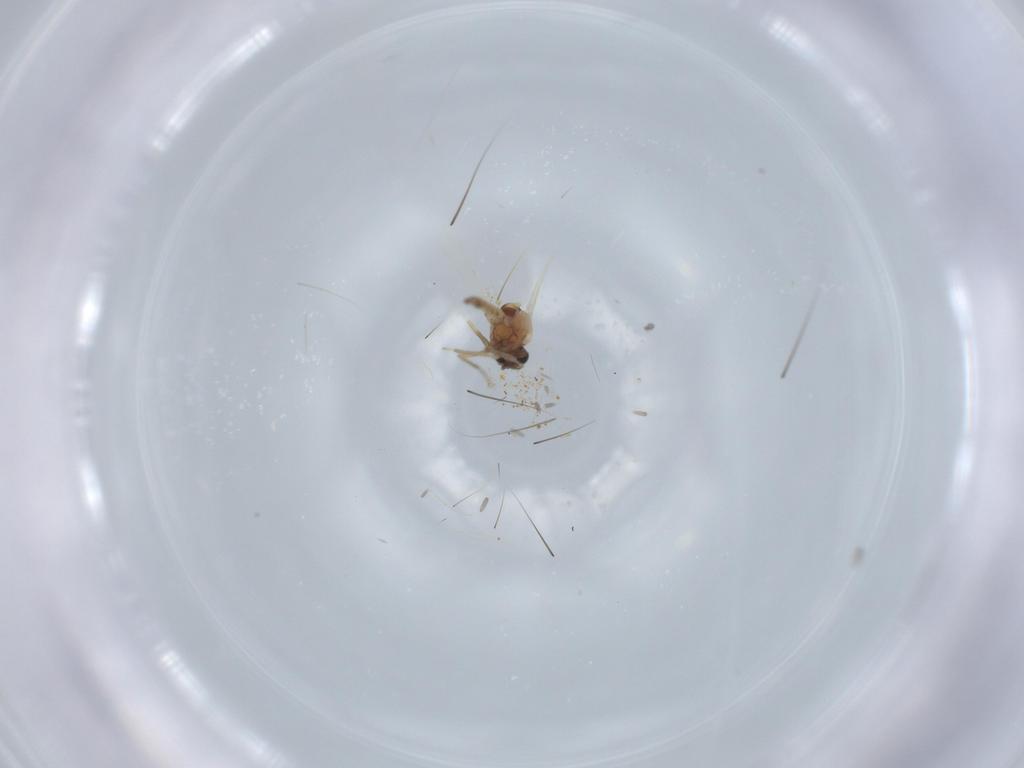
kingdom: Animalia
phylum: Arthropoda
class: Insecta
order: Diptera
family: Ceratopogonidae
